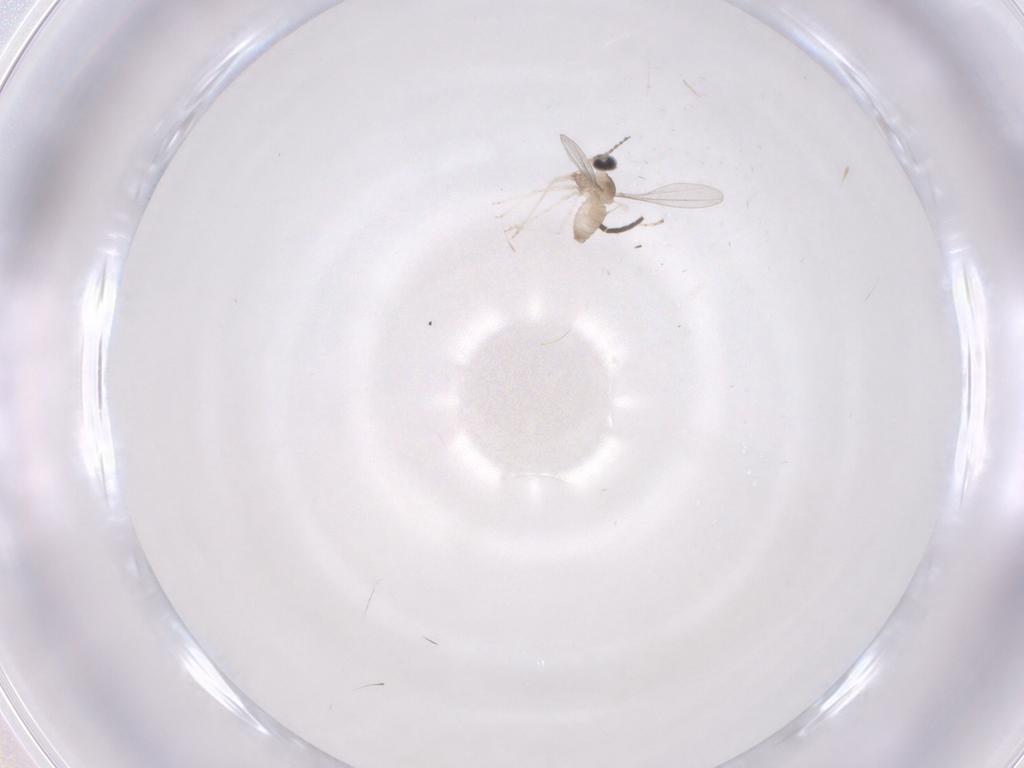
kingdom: Animalia
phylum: Arthropoda
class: Insecta
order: Diptera
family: Cecidomyiidae
